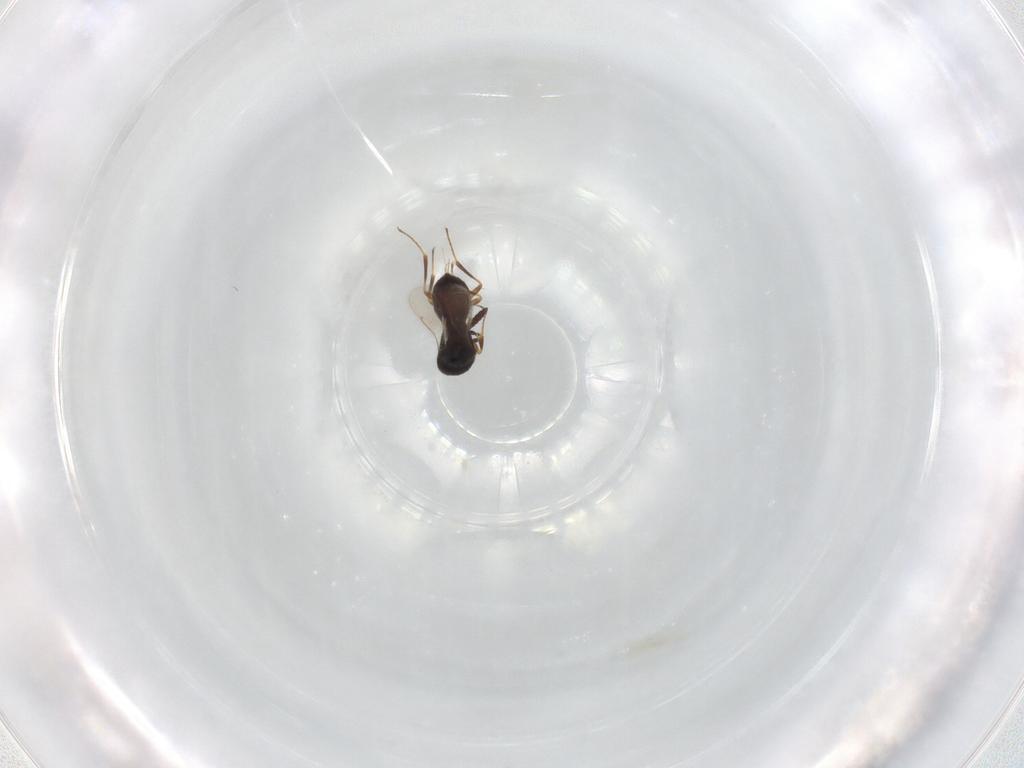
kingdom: Animalia
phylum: Arthropoda
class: Insecta
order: Hymenoptera
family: Scelionidae
